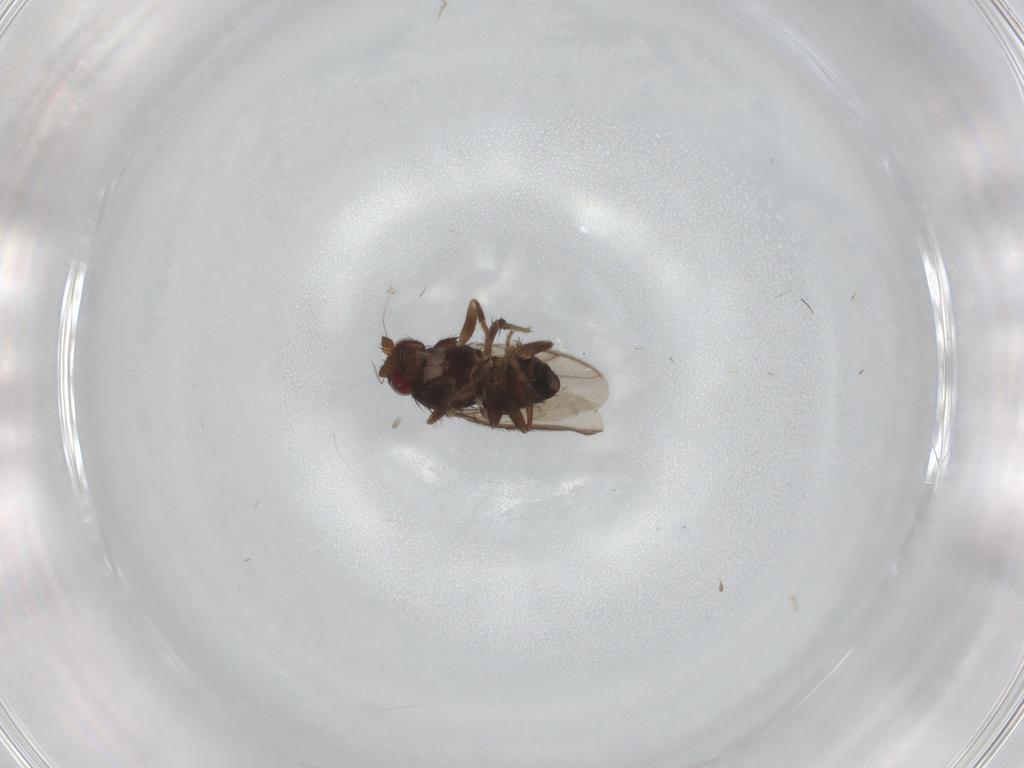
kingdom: Animalia
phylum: Arthropoda
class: Insecta
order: Diptera
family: Sphaeroceridae
